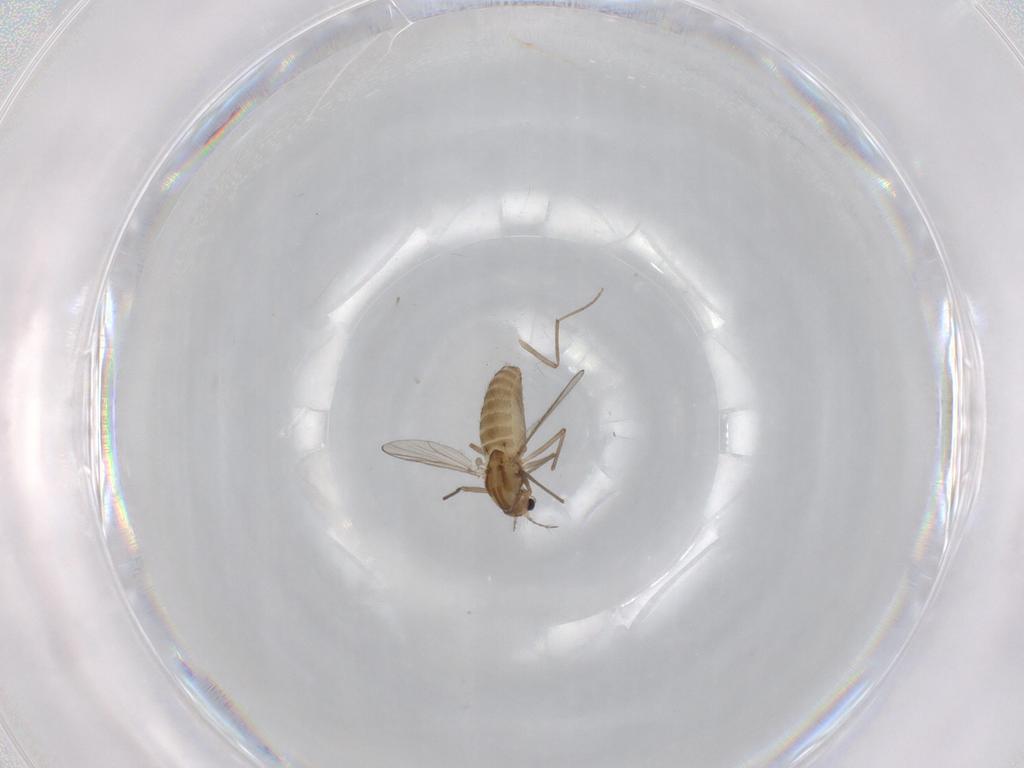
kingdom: Animalia
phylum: Arthropoda
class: Insecta
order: Diptera
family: Chironomidae
